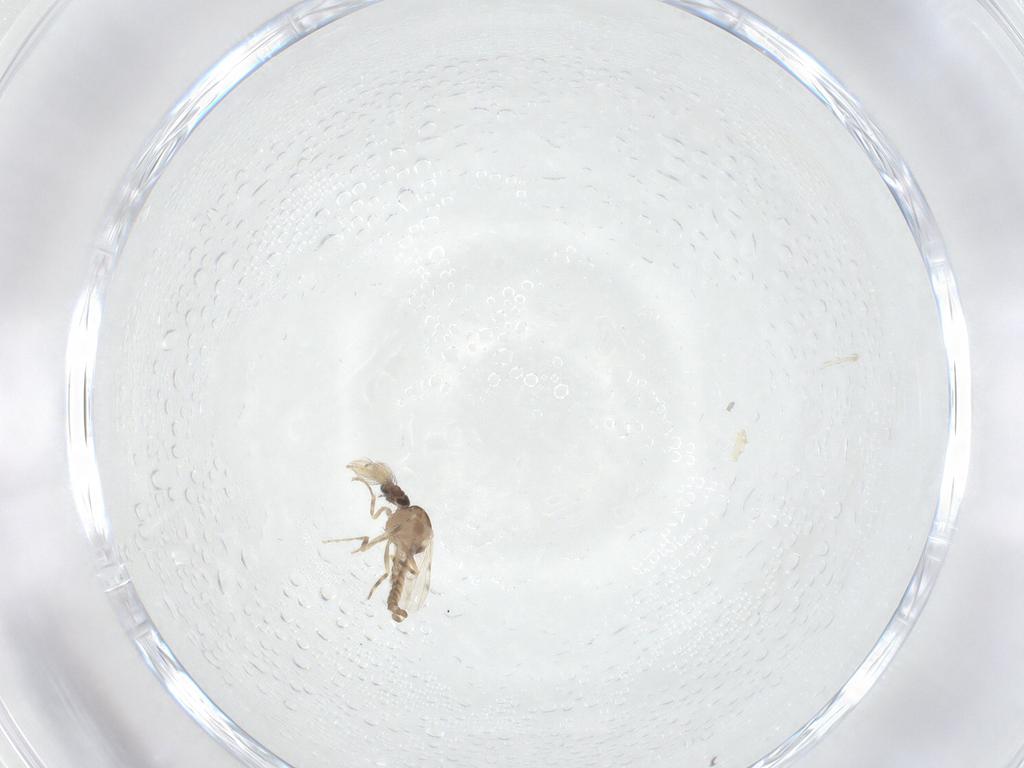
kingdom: Animalia
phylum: Arthropoda
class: Insecta
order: Diptera
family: Ceratopogonidae
